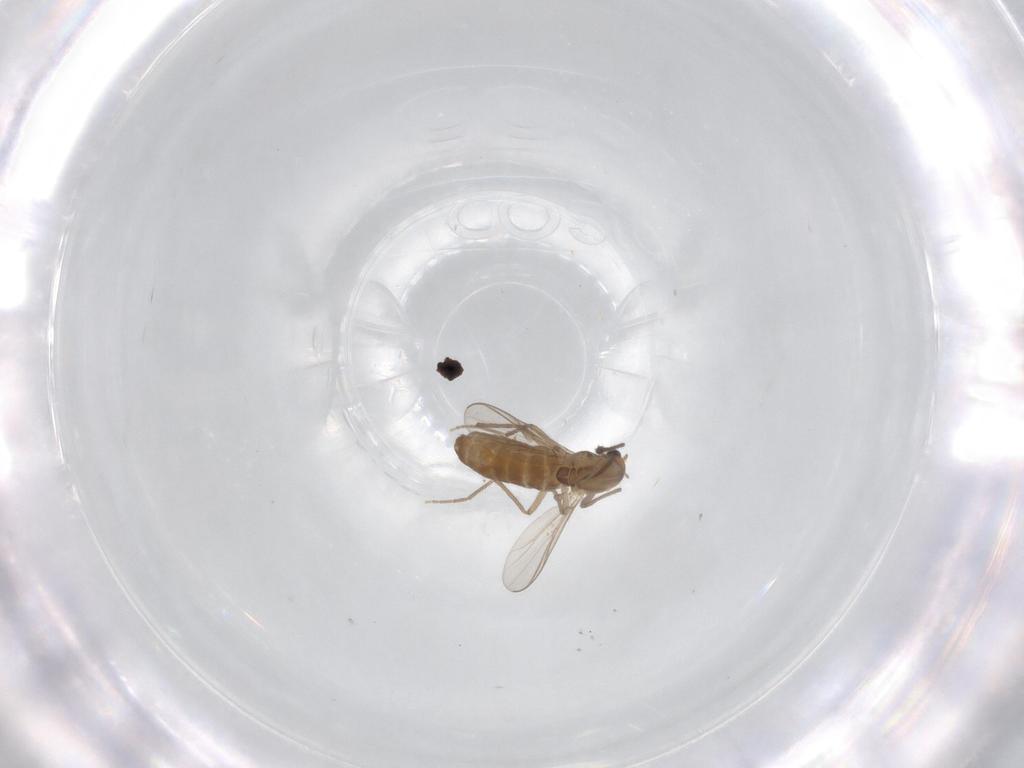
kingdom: Animalia
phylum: Arthropoda
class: Insecta
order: Diptera
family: Chironomidae
